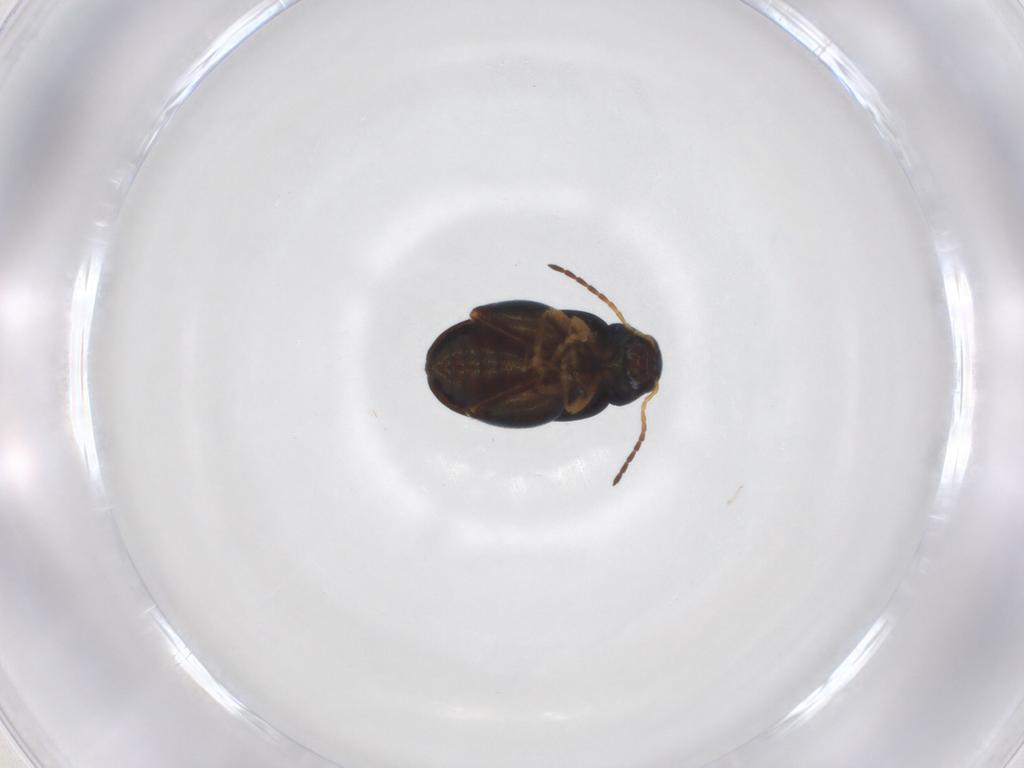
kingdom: Animalia
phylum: Arthropoda
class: Insecta
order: Coleoptera
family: Chrysomelidae
